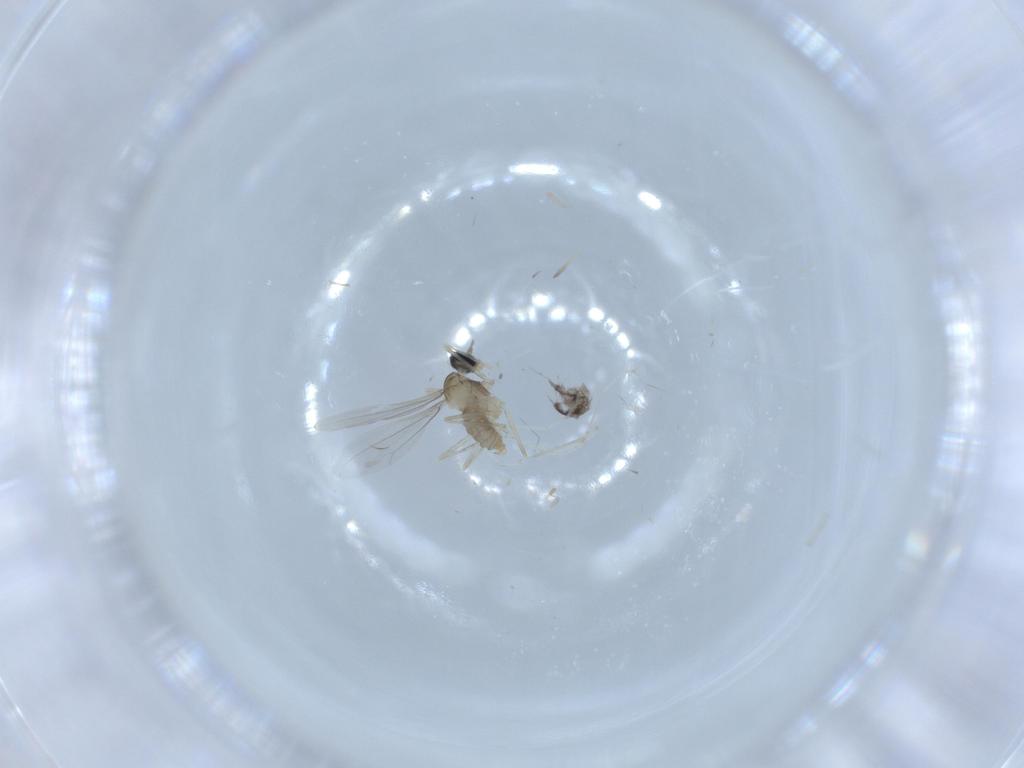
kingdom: Animalia
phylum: Arthropoda
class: Insecta
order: Diptera
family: Cecidomyiidae
